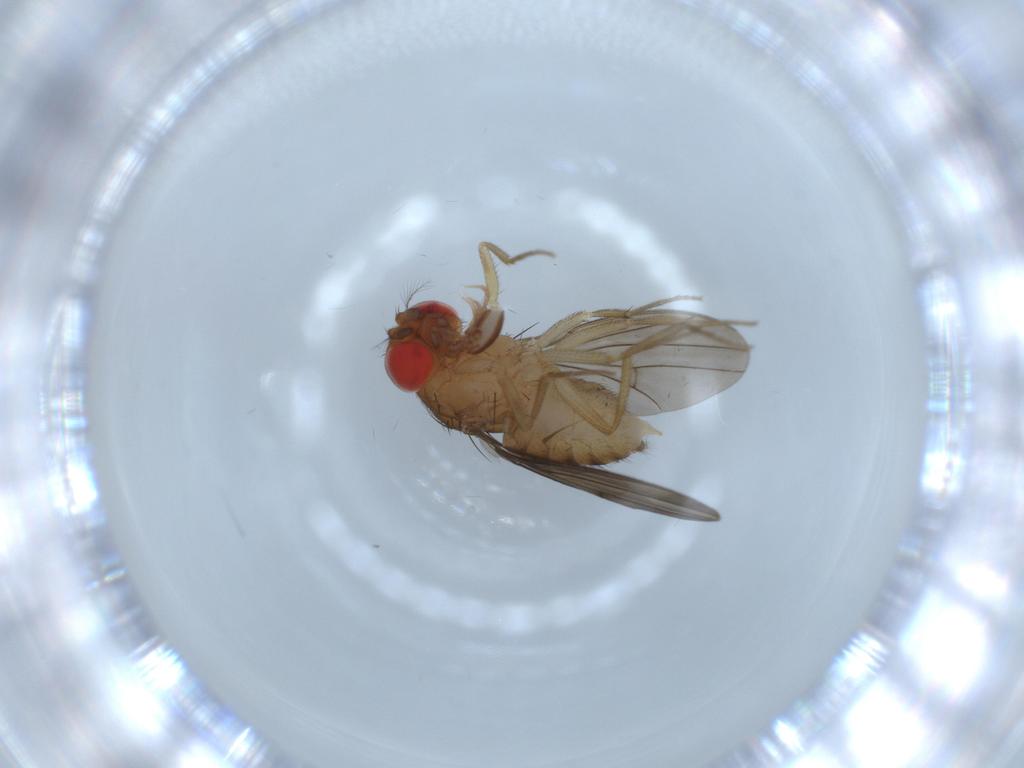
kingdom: Animalia
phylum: Arthropoda
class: Insecta
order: Diptera
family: Drosophilidae
